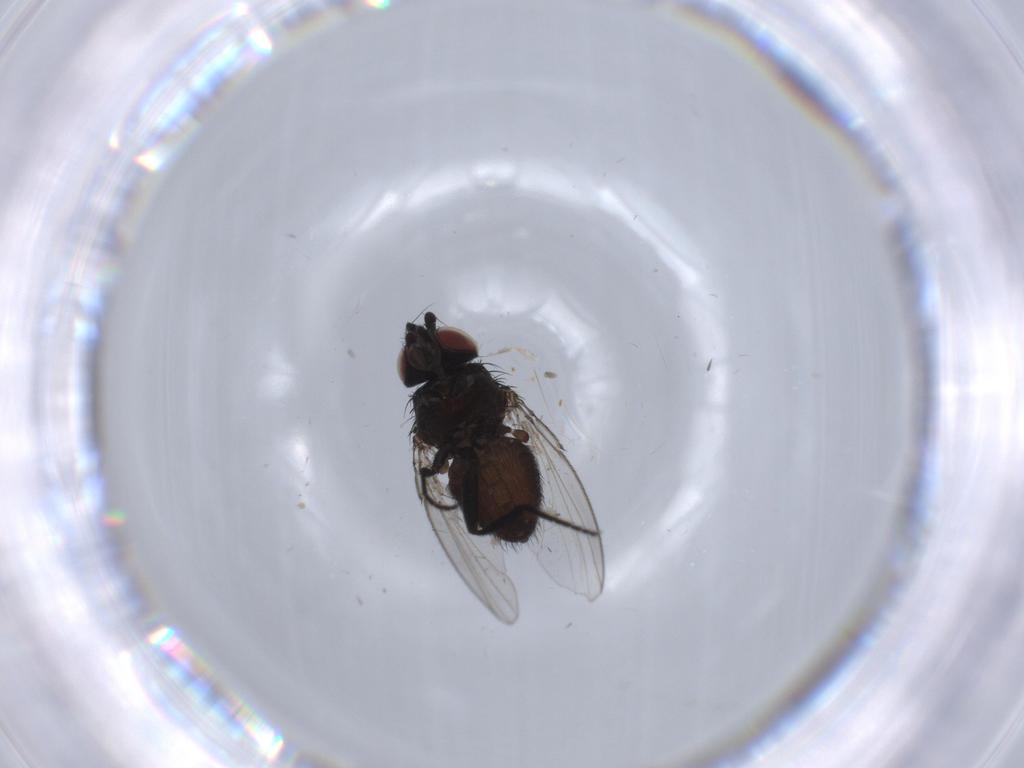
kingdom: Animalia
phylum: Arthropoda
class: Insecta
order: Diptera
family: Milichiidae
